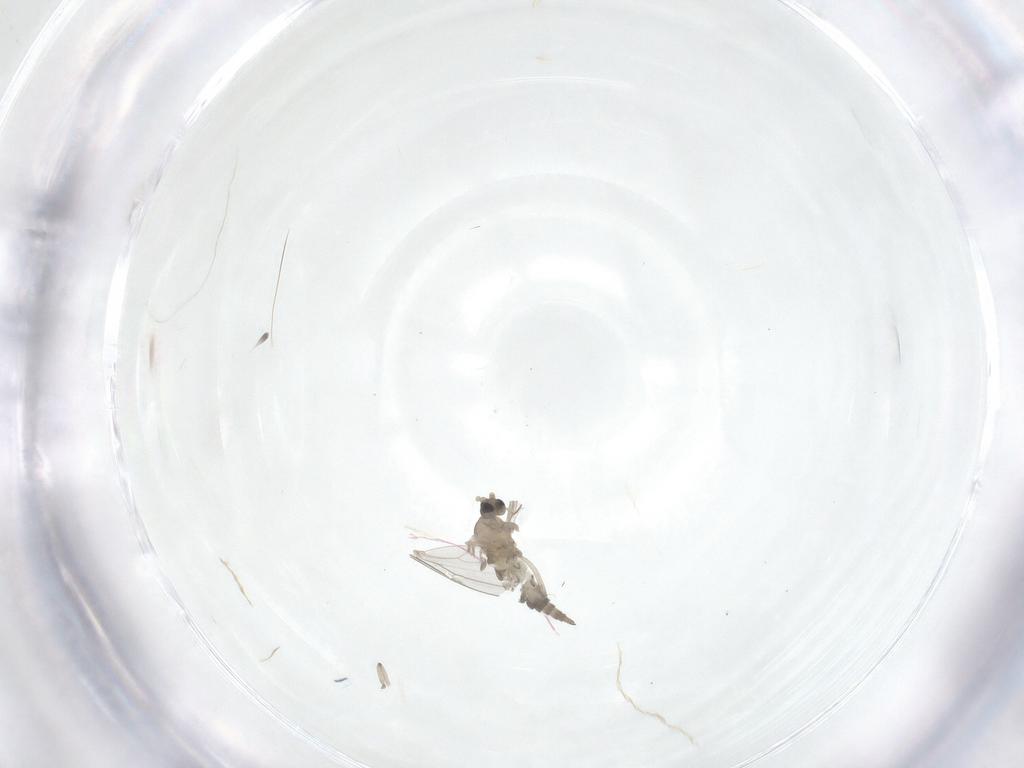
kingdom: Animalia
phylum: Arthropoda
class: Insecta
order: Diptera
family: Cecidomyiidae
